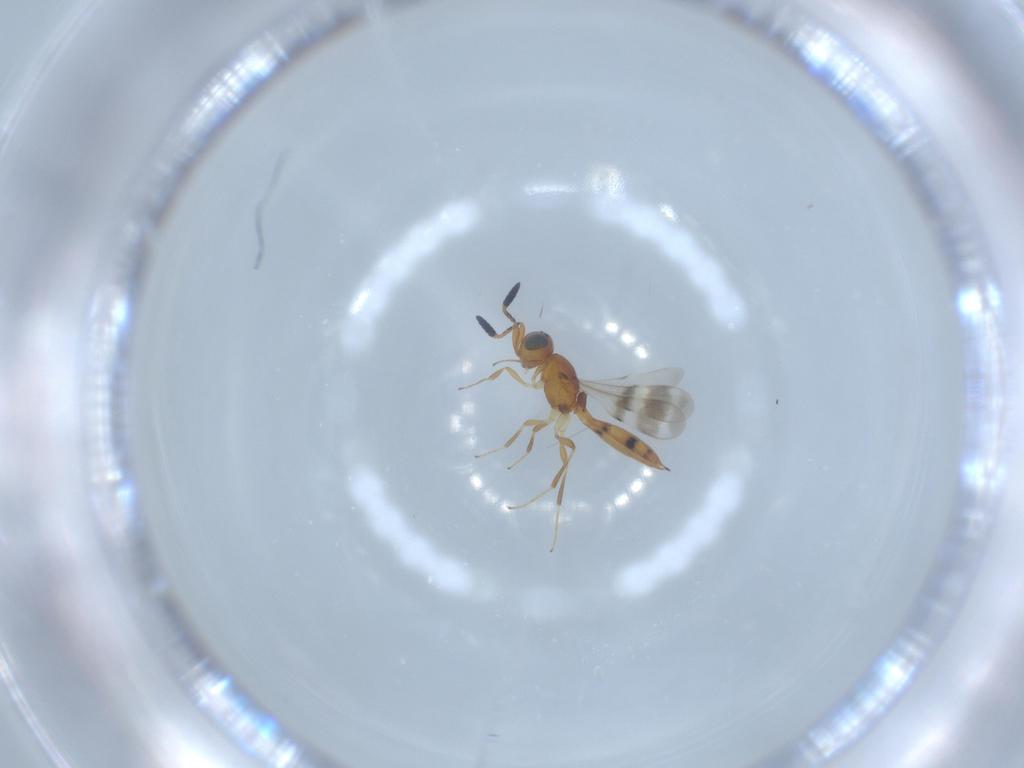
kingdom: Animalia
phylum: Arthropoda
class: Insecta
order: Hymenoptera
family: Scelionidae
